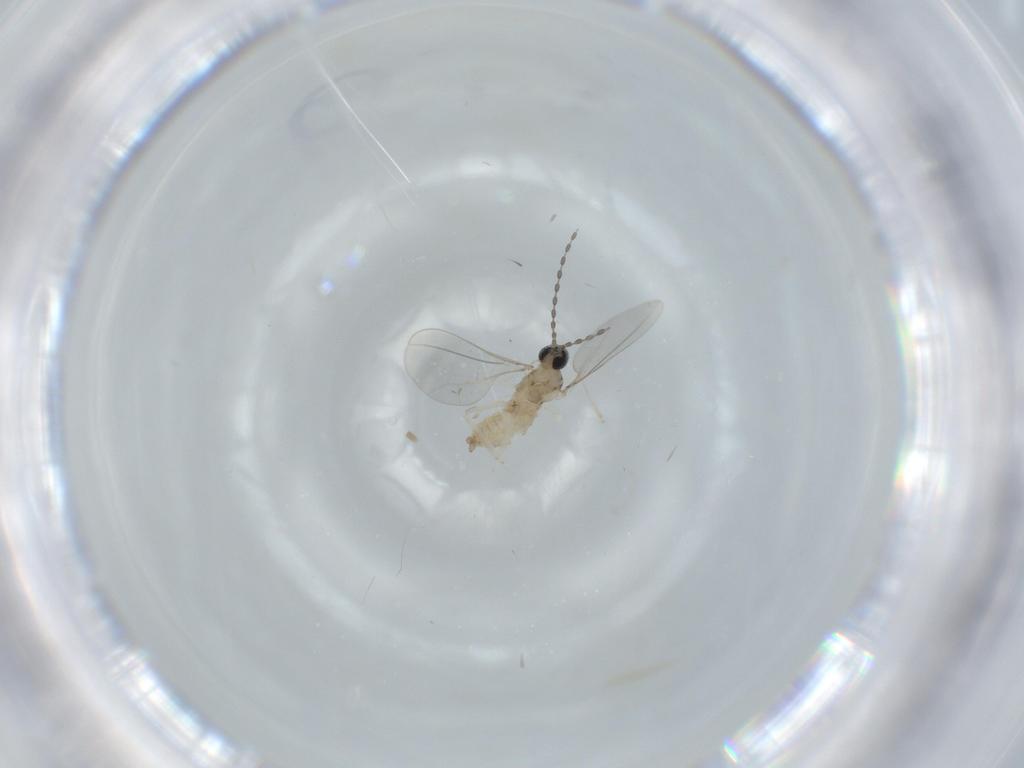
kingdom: Animalia
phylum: Arthropoda
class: Insecta
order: Diptera
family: Cecidomyiidae
